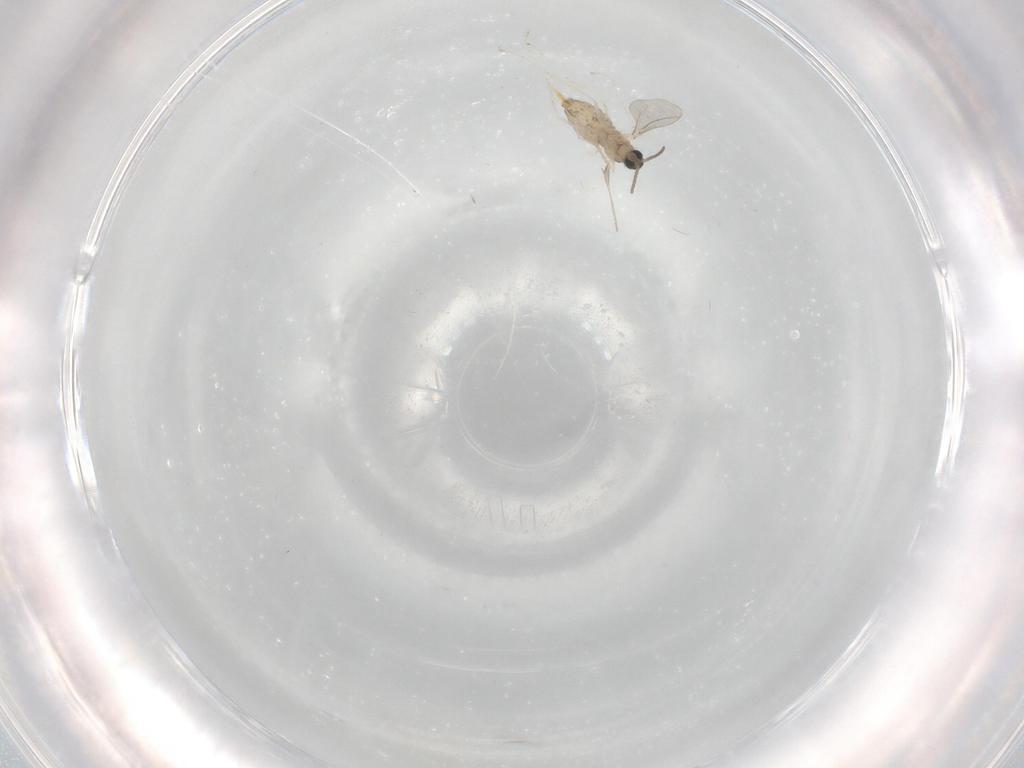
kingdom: Animalia
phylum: Arthropoda
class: Insecta
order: Diptera
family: Cecidomyiidae
